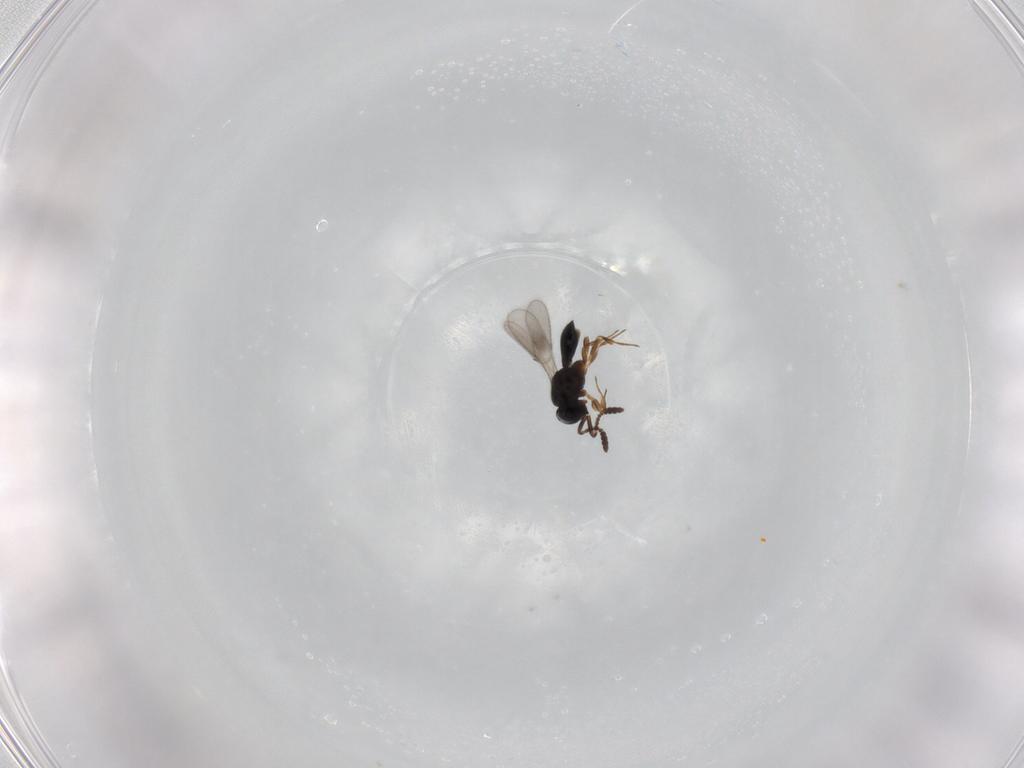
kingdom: Animalia
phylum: Arthropoda
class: Insecta
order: Hymenoptera
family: Scelionidae
